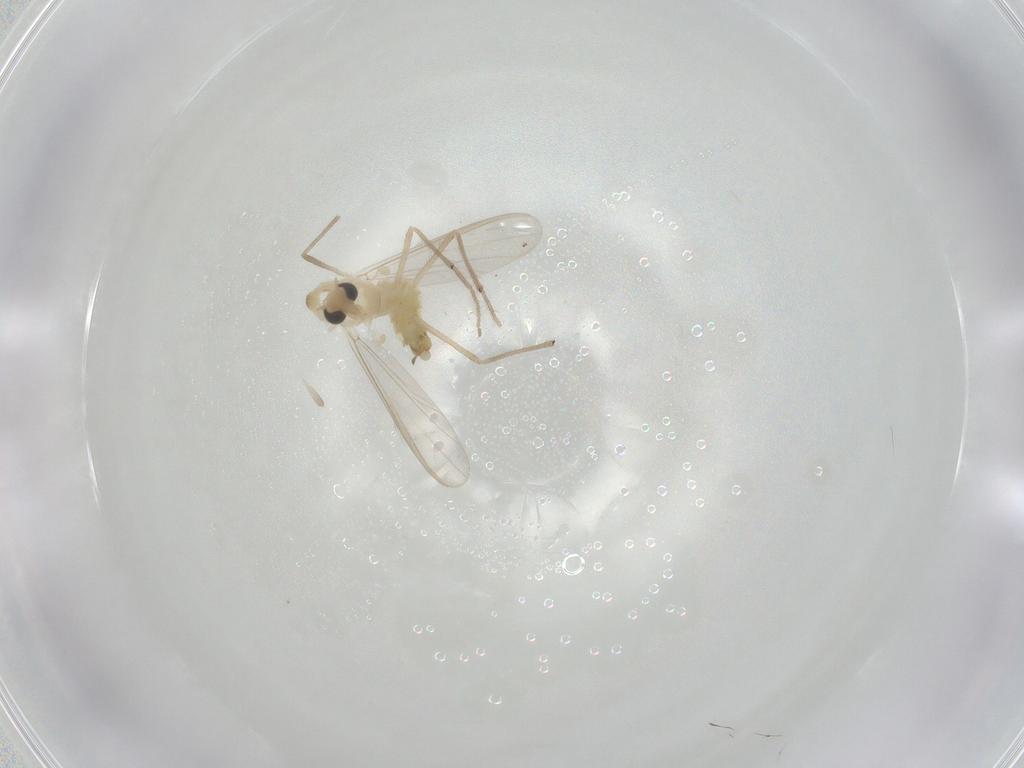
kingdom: Animalia
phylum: Arthropoda
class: Insecta
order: Diptera
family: Chironomidae
